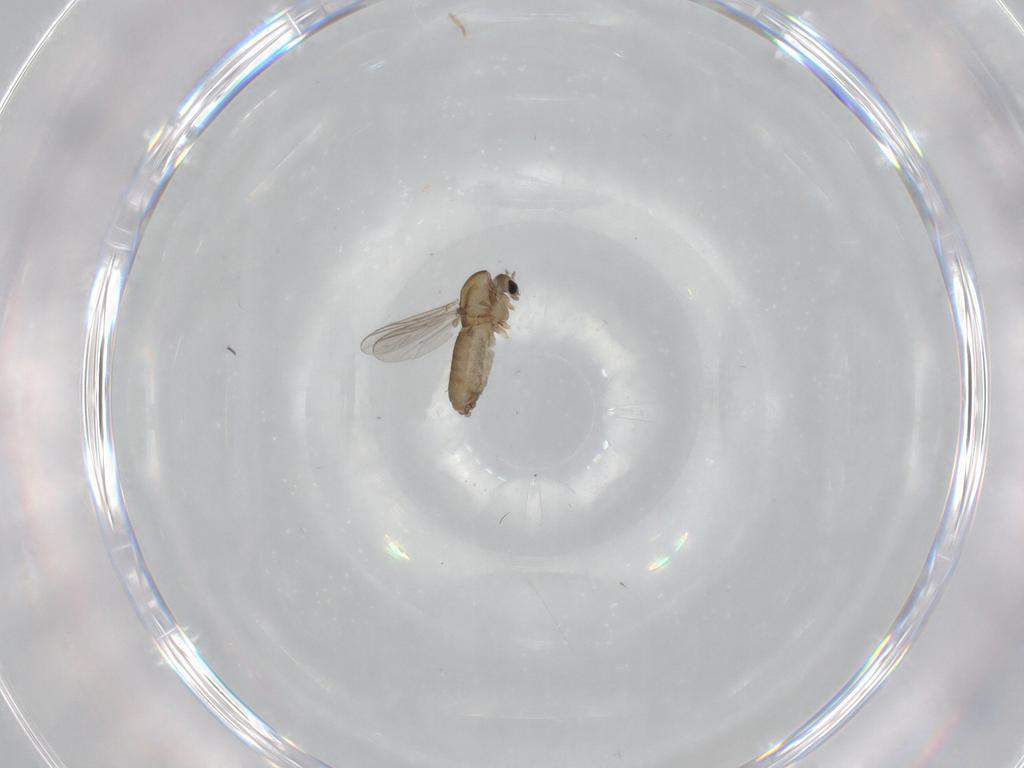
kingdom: Animalia
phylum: Arthropoda
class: Insecta
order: Diptera
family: Chironomidae
